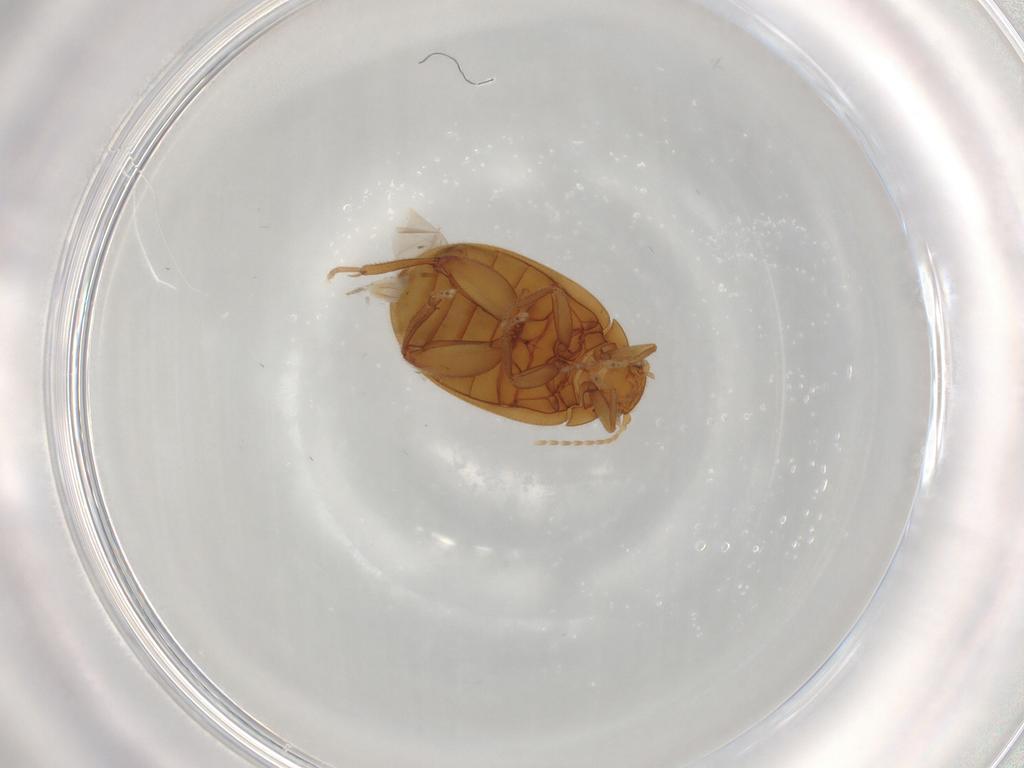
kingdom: Animalia
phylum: Arthropoda
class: Insecta
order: Coleoptera
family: Scirtidae
